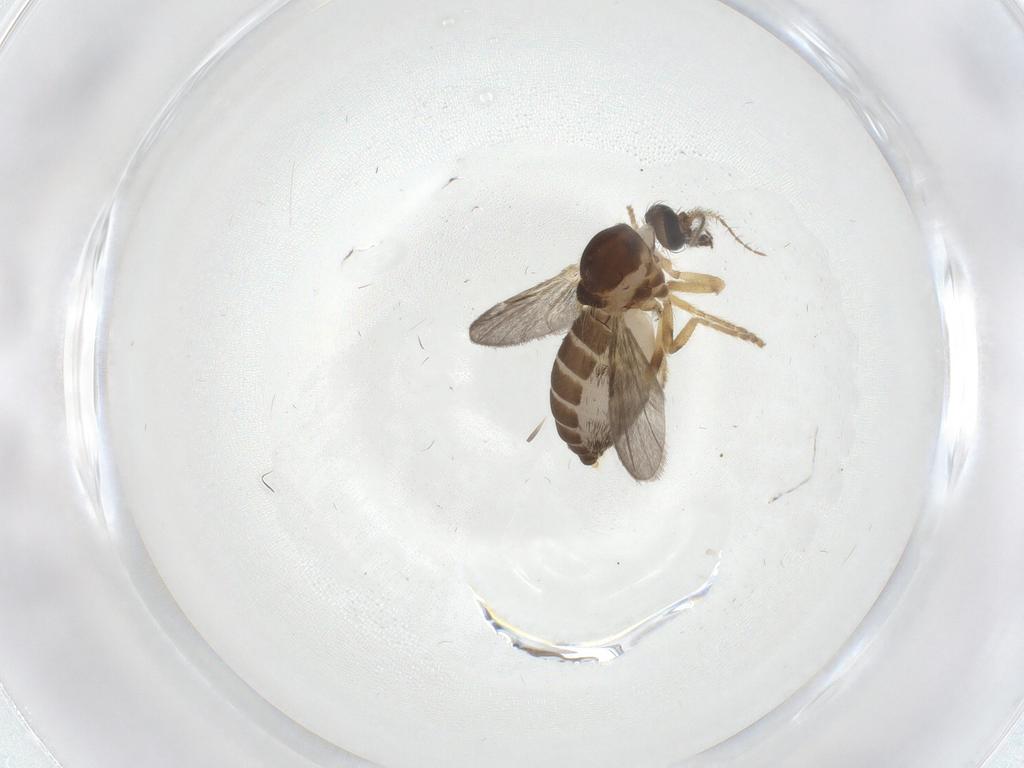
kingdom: Animalia
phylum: Arthropoda
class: Insecta
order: Diptera
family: Ceratopogonidae
